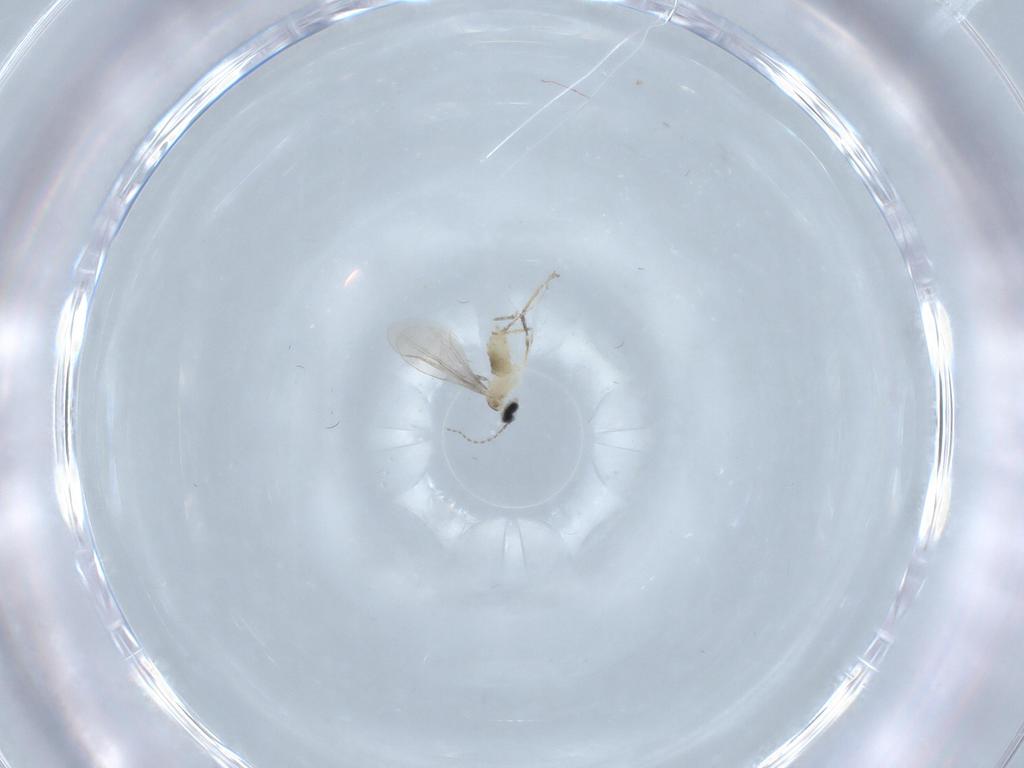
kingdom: Animalia
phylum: Arthropoda
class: Insecta
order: Diptera
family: Cecidomyiidae
